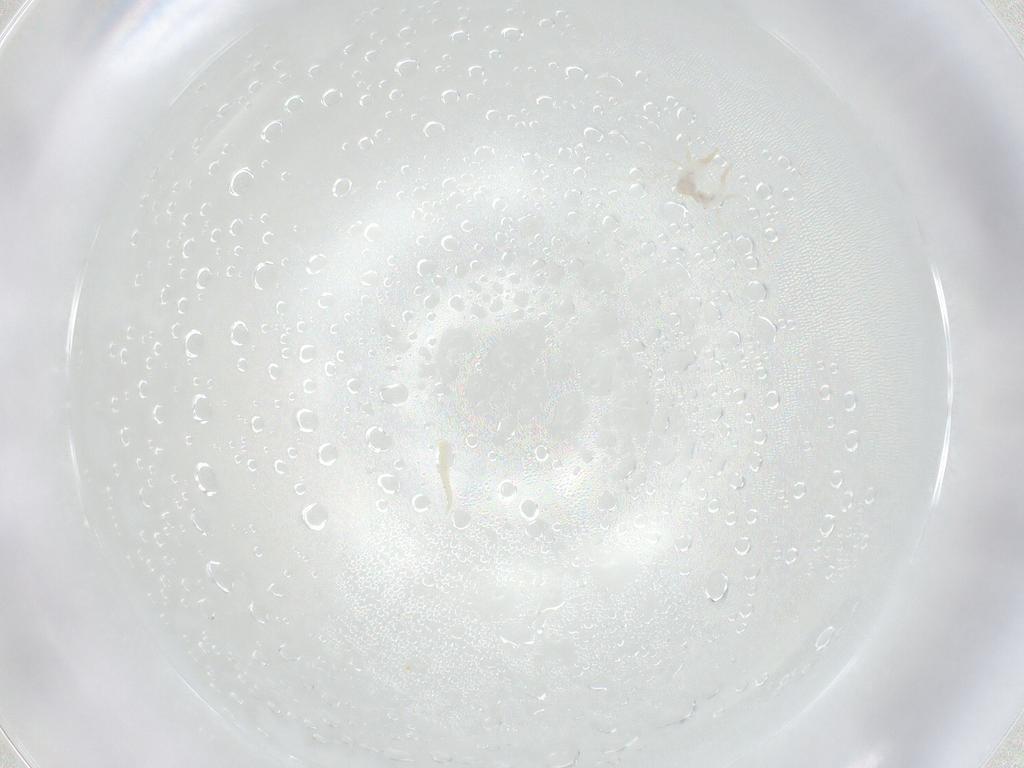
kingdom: Animalia
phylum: Arthropoda
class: Arachnida
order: Mesostigmata
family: Phytoseiidae
